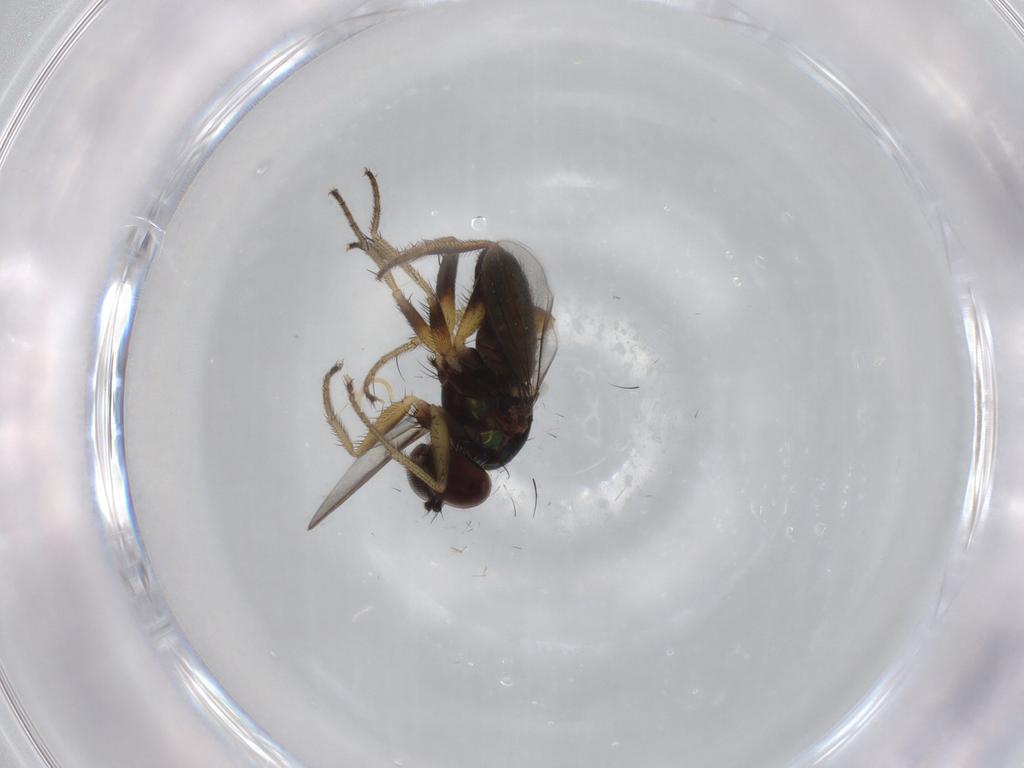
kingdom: Animalia
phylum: Arthropoda
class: Insecta
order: Diptera
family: Dolichopodidae
